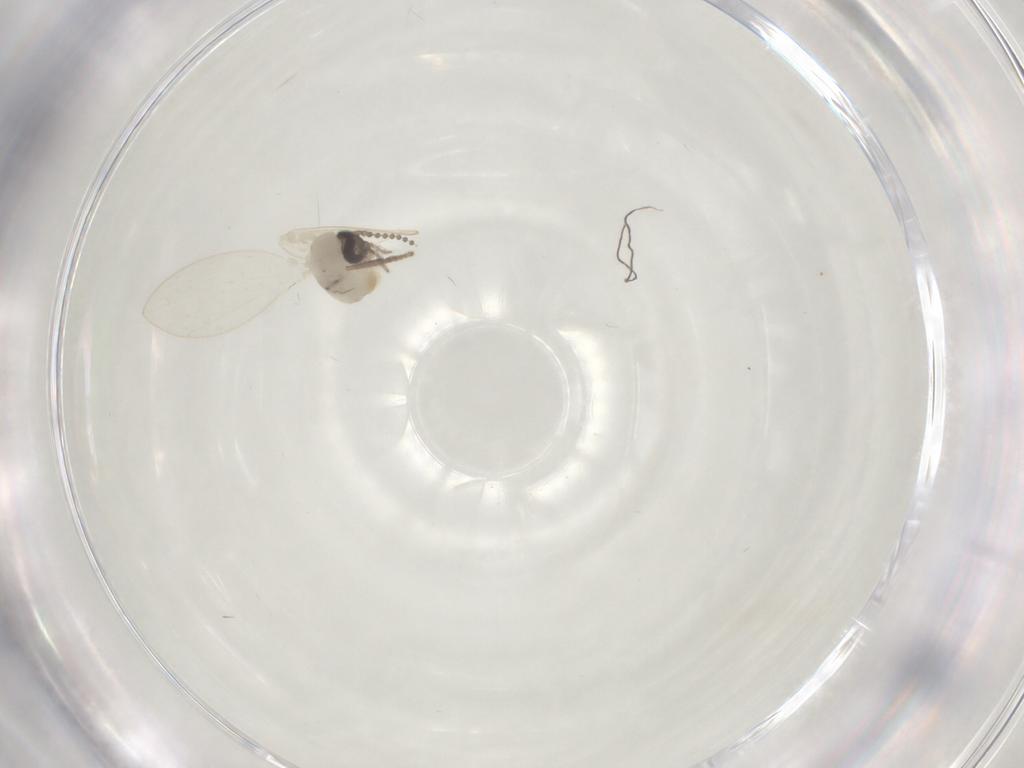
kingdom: Animalia
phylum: Arthropoda
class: Insecta
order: Diptera
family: Psychodidae
